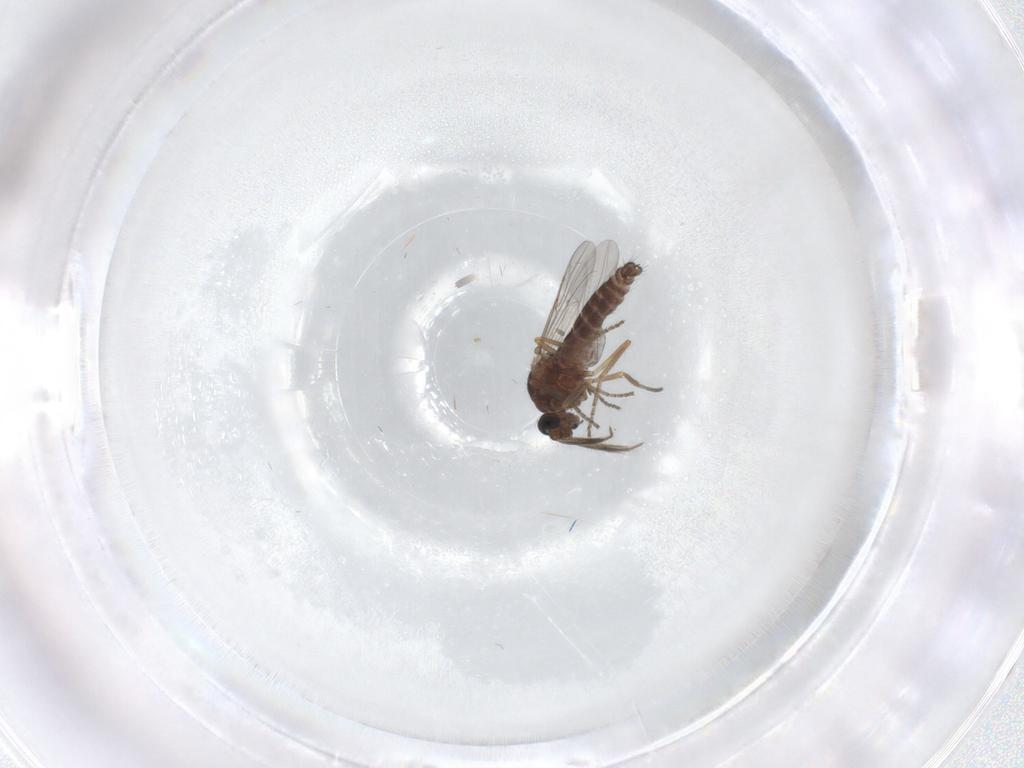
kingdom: Animalia
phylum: Arthropoda
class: Insecta
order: Diptera
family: Ceratopogonidae
